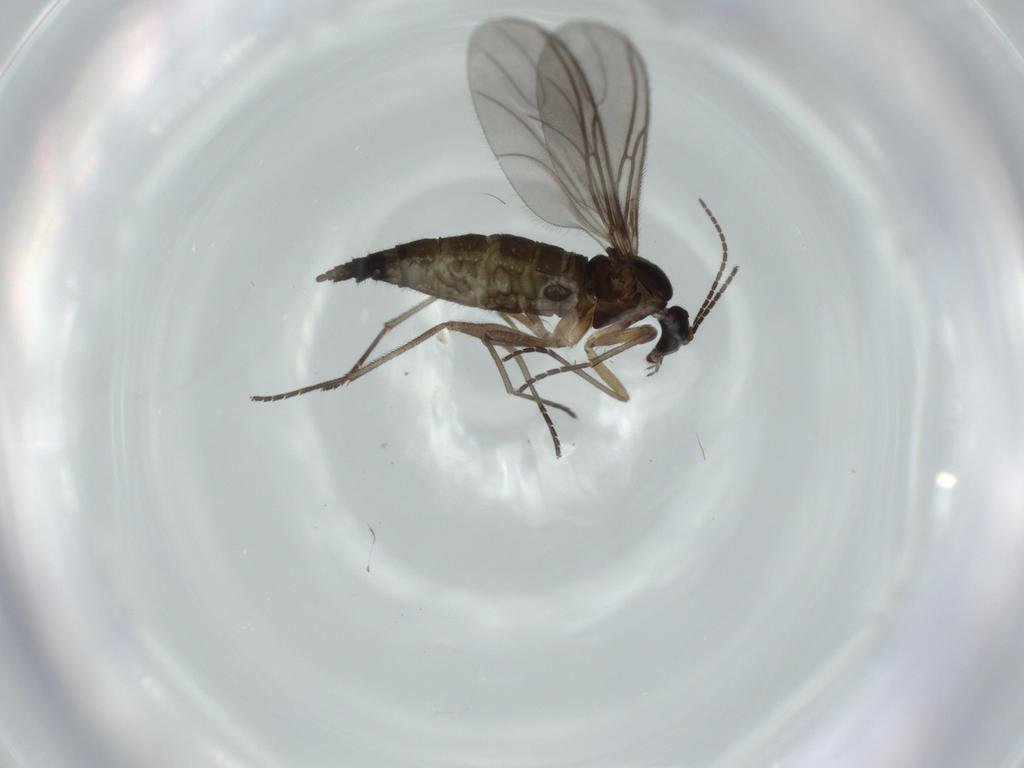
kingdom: Animalia
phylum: Arthropoda
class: Insecta
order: Diptera
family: Sciaridae
